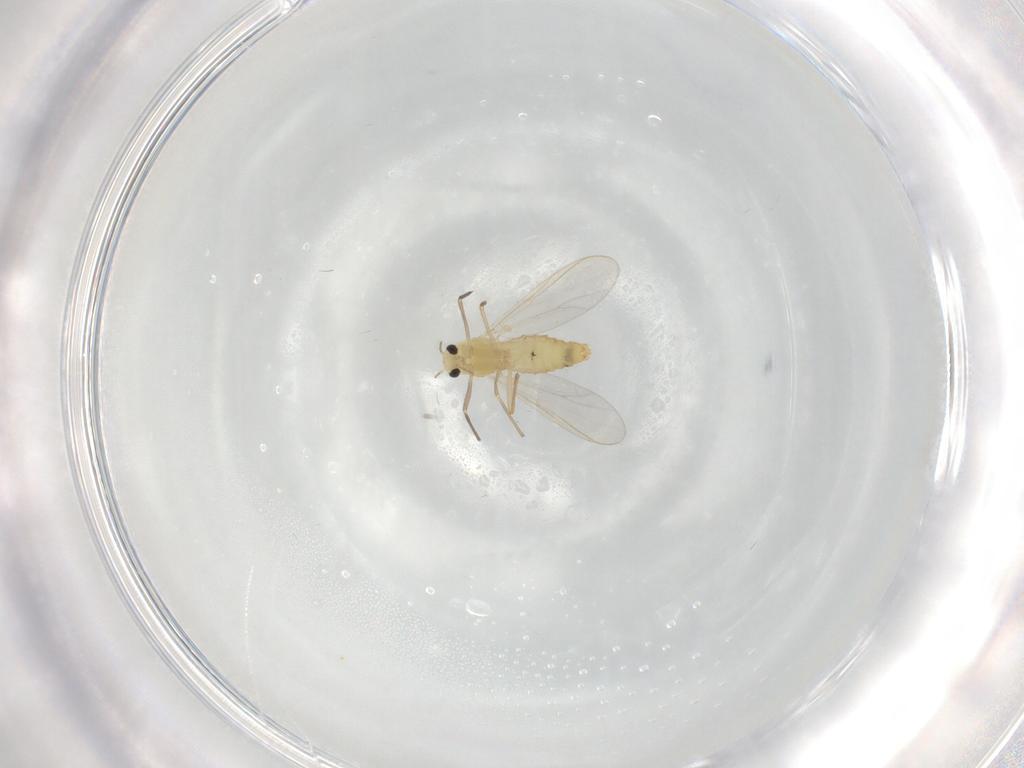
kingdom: Animalia
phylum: Arthropoda
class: Insecta
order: Diptera
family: Chironomidae
